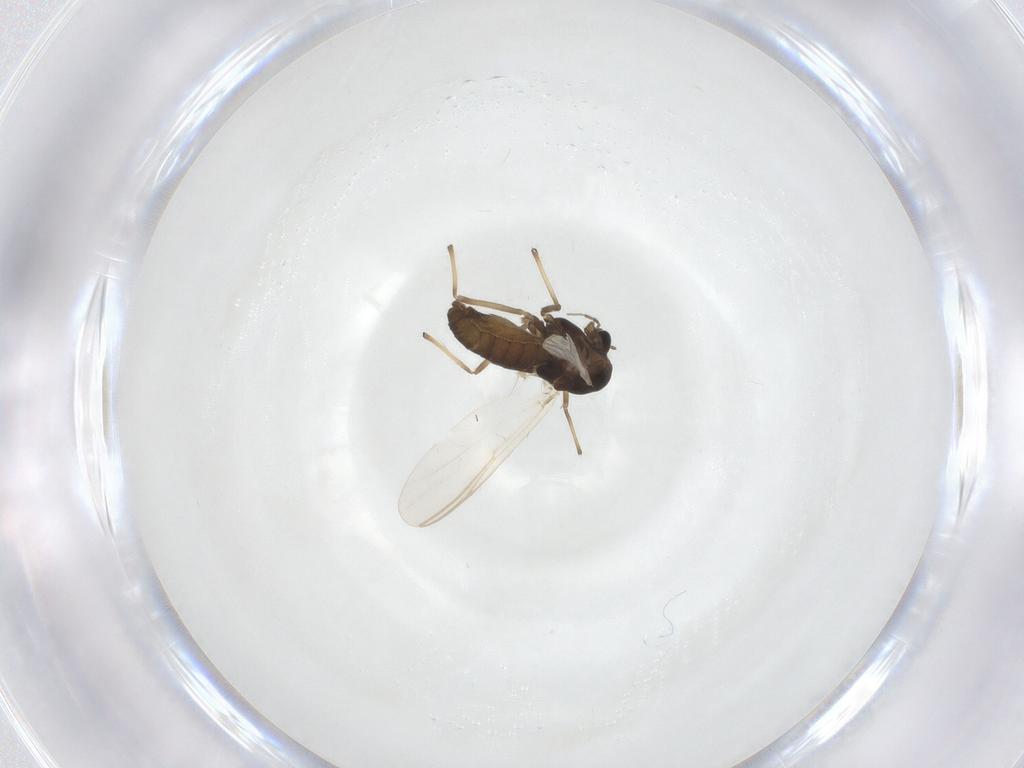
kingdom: Animalia
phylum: Arthropoda
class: Insecta
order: Diptera
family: Chironomidae
